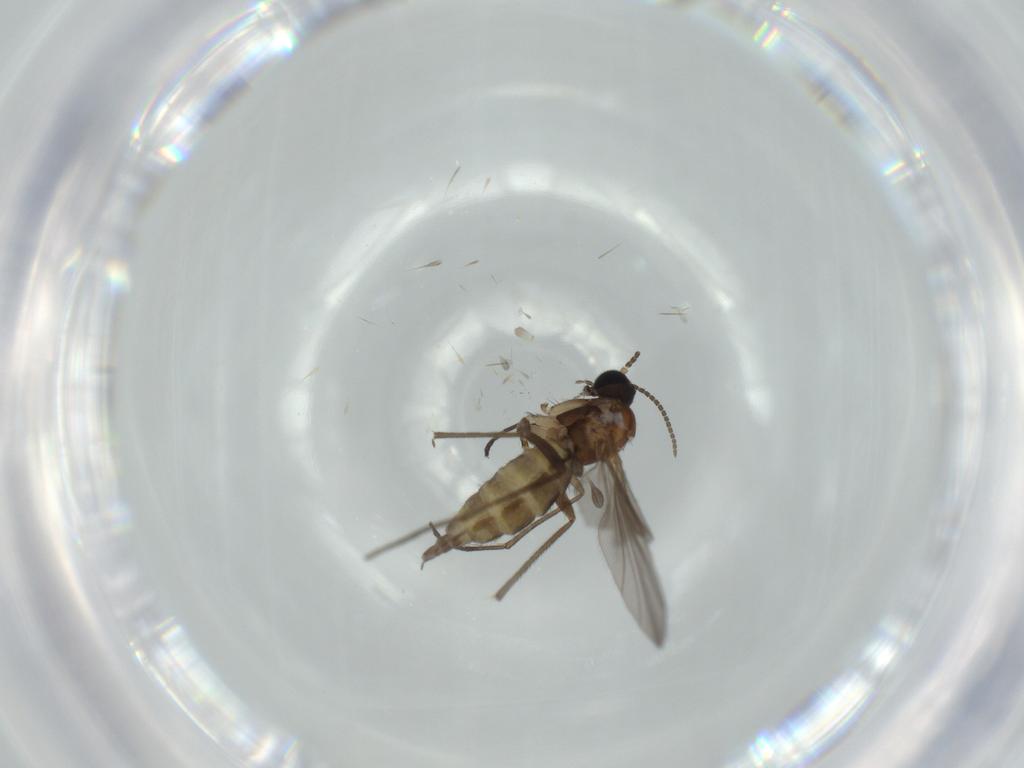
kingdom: Animalia
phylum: Arthropoda
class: Insecta
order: Diptera
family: Sciaridae
